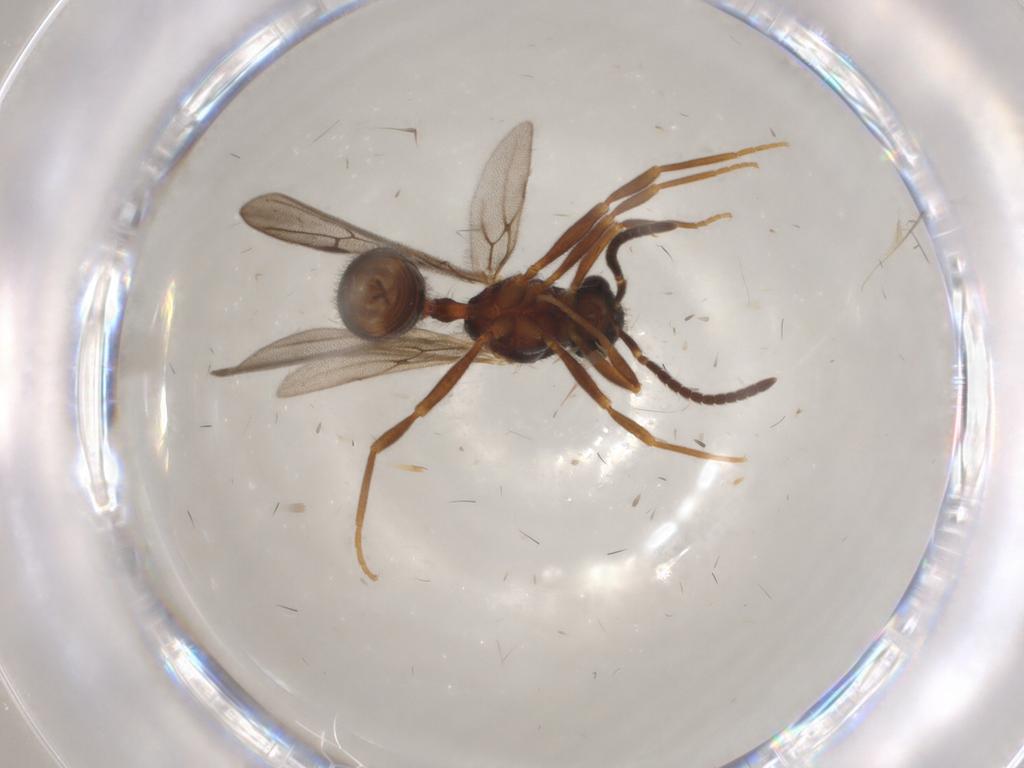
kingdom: Animalia
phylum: Arthropoda
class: Insecta
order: Hymenoptera
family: Formicidae
